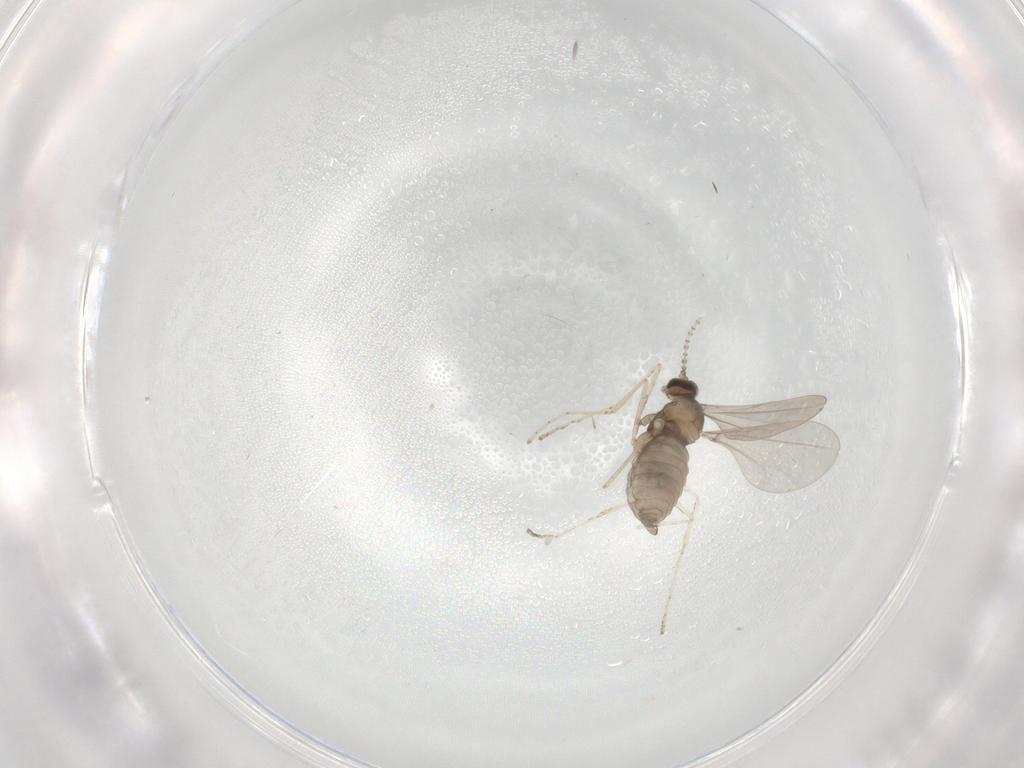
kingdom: Animalia
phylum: Arthropoda
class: Insecta
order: Diptera
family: Cecidomyiidae
